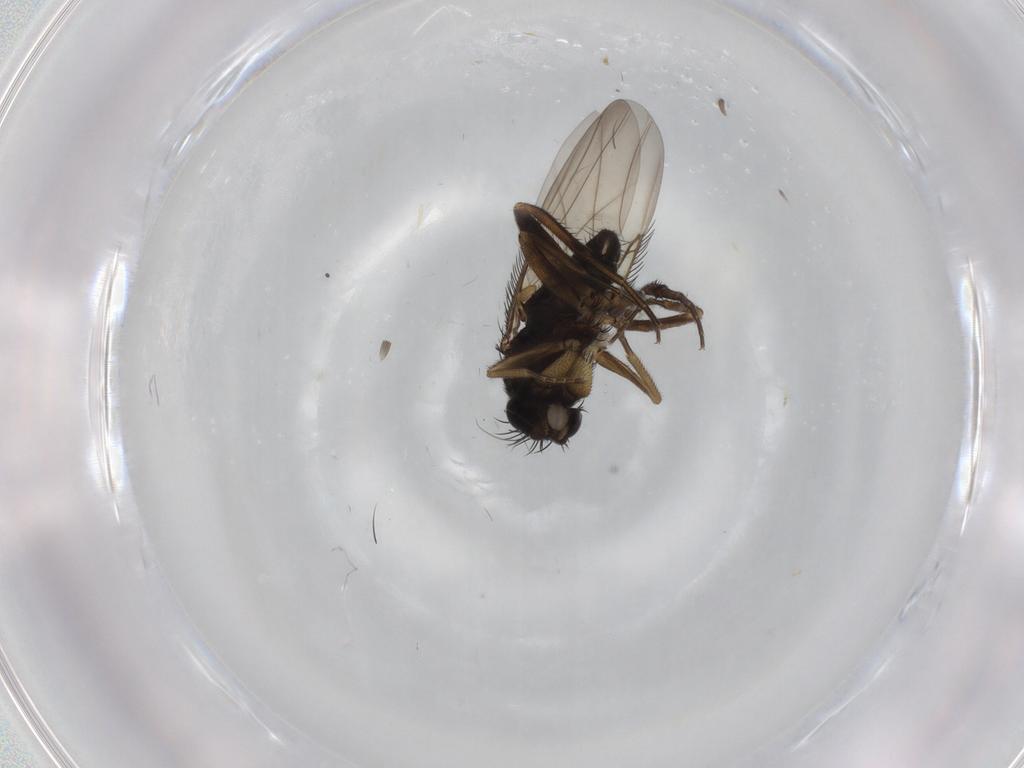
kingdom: Animalia
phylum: Arthropoda
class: Insecta
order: Diptera
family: Phoridae
